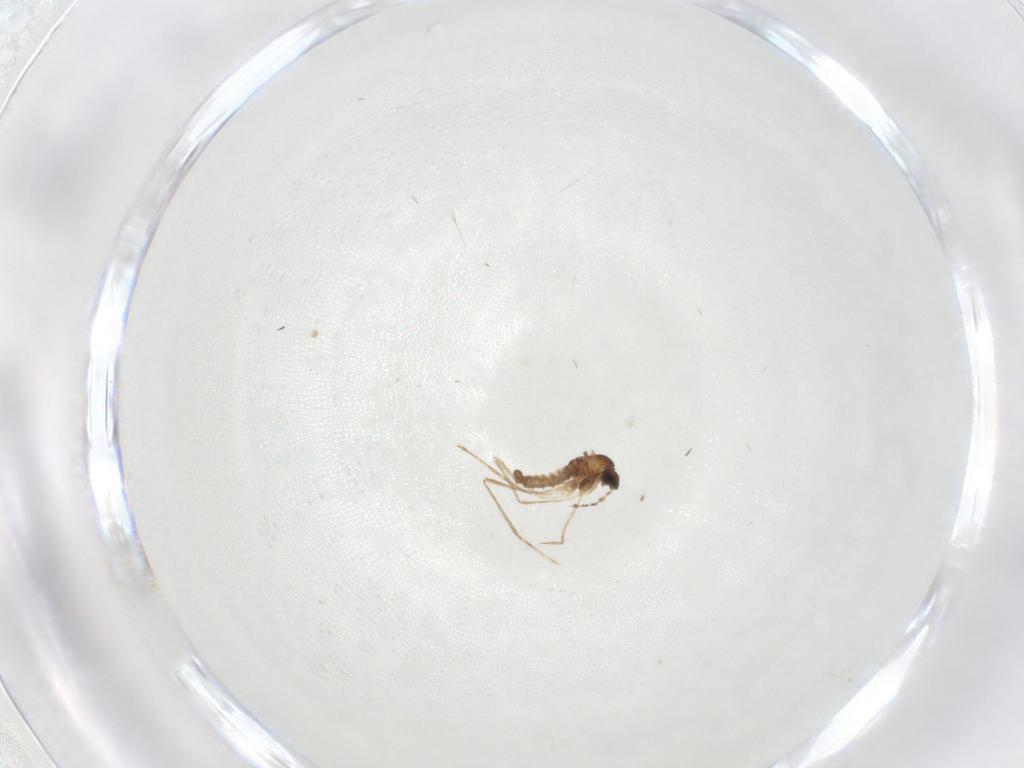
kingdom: Animalia
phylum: Arthropoda
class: Insecta
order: Diptera
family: Cecidomyiidae
